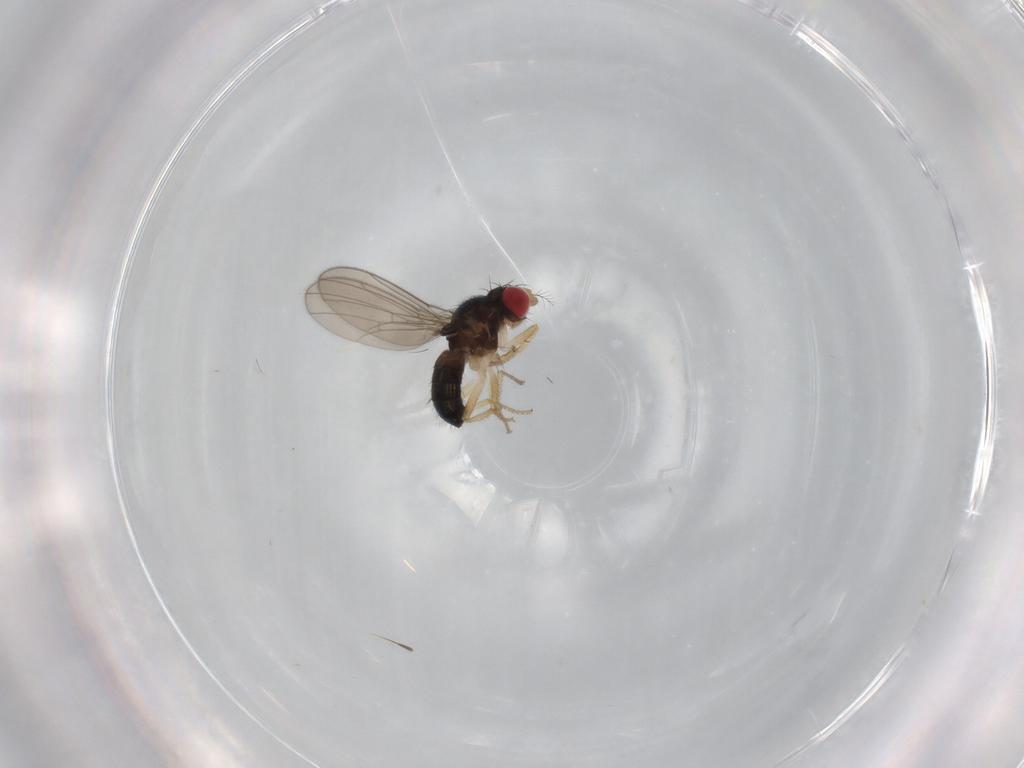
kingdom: Animalia
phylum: Arthropoda
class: Insecta
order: Diptera
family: Drosophilidae
